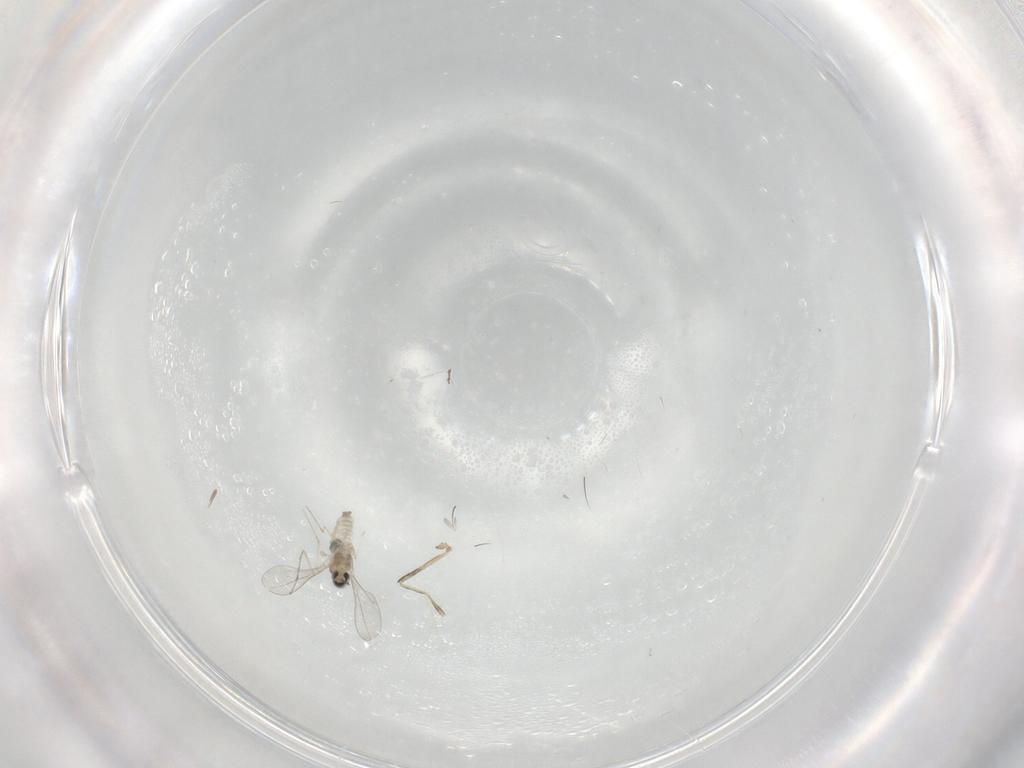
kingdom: Animalia
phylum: Arthropoda
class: Insecta
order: Diptera
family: Cecidomyiidae
